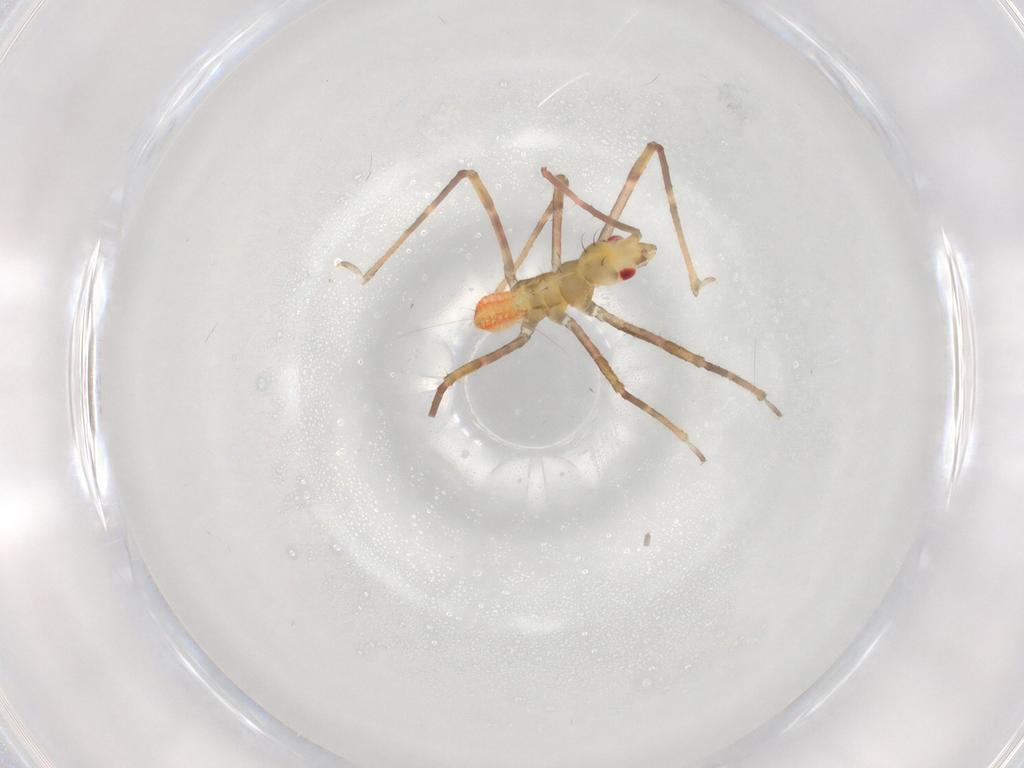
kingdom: Animalia
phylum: Arthropoda
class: Insecta
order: Hemiptera
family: Reduviidae
